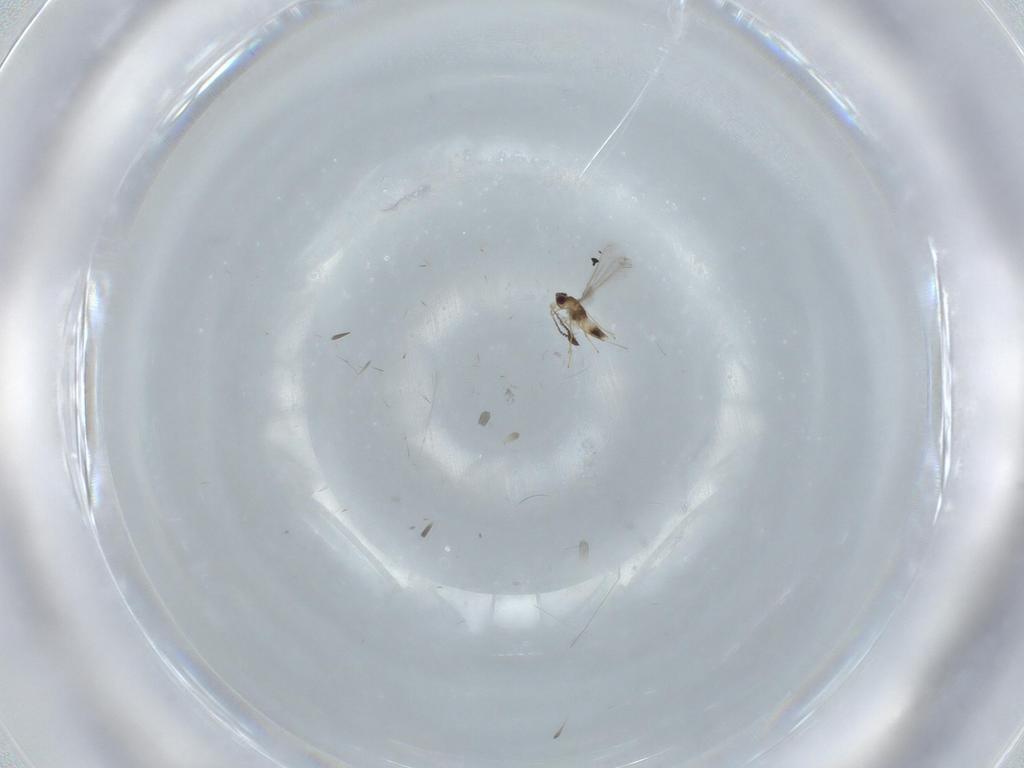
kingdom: Animalia
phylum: Arthropoda
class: Insecta
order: Hymenoptera
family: Mymaridae
